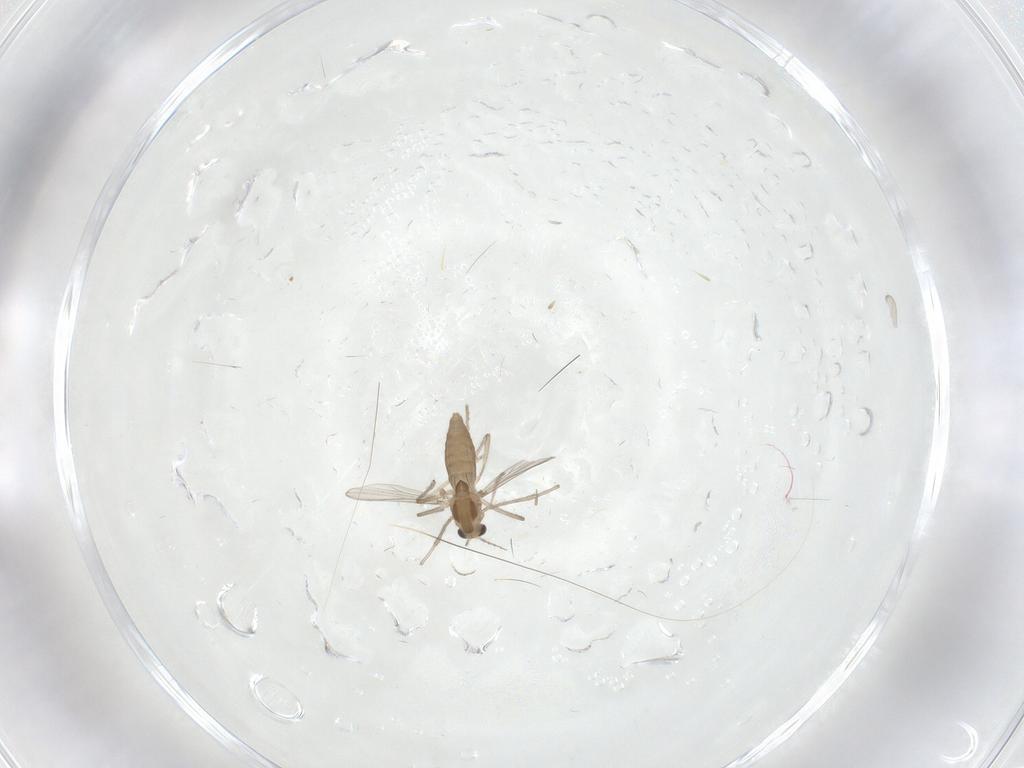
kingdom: Animalia
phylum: Arthropoda
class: Insecta
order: Diptera
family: Chironomidae
